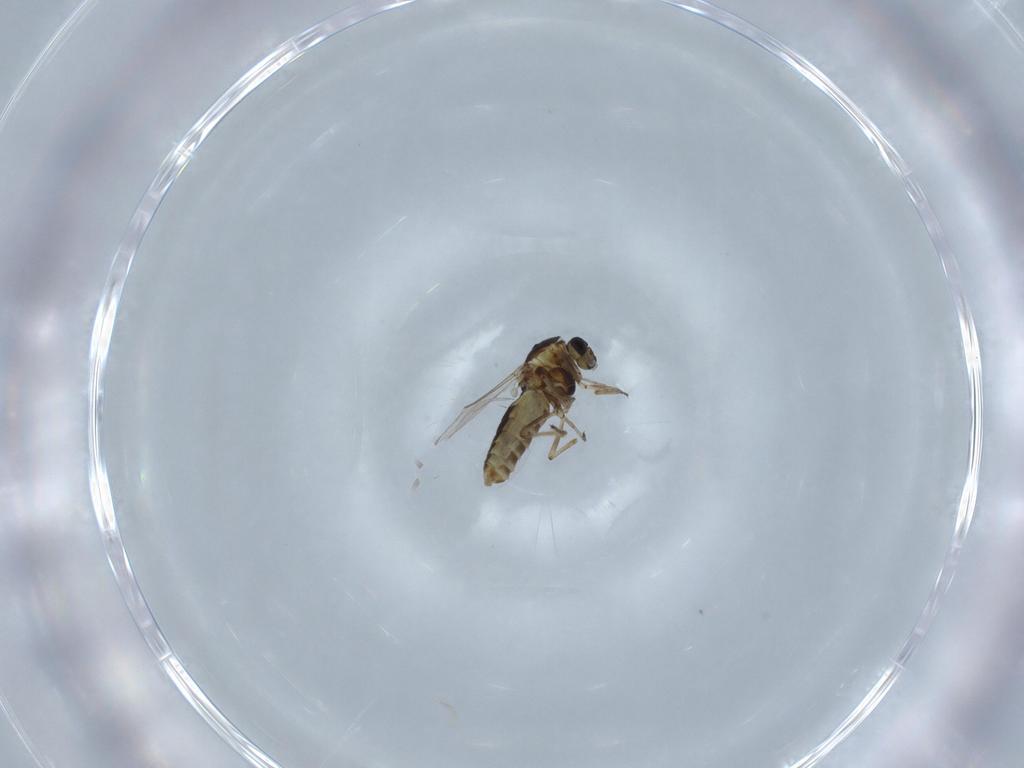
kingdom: Animalia
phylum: Arthropoda
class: Insecta
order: Diptera
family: Ceratopogonidae
